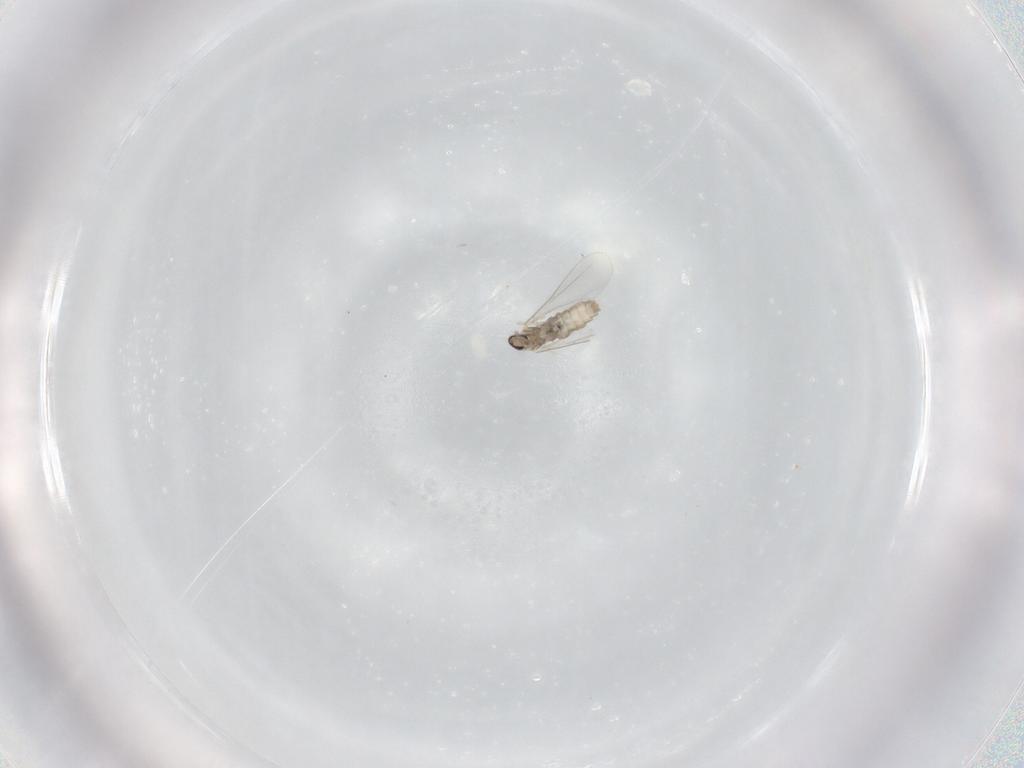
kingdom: Animalia
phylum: Arthropoda
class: Insecta
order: Diptera
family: Cecidomyiidae
